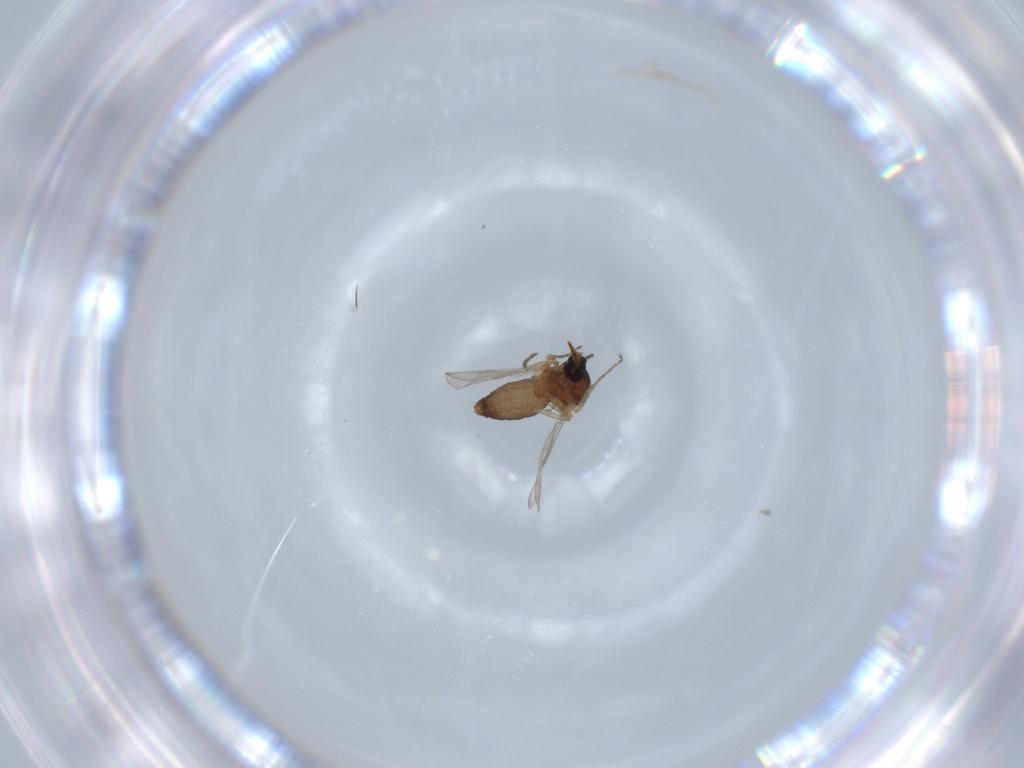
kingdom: Animalia
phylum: Arthropoda
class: Insecta
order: Diptera
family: Ceratopogonidae
